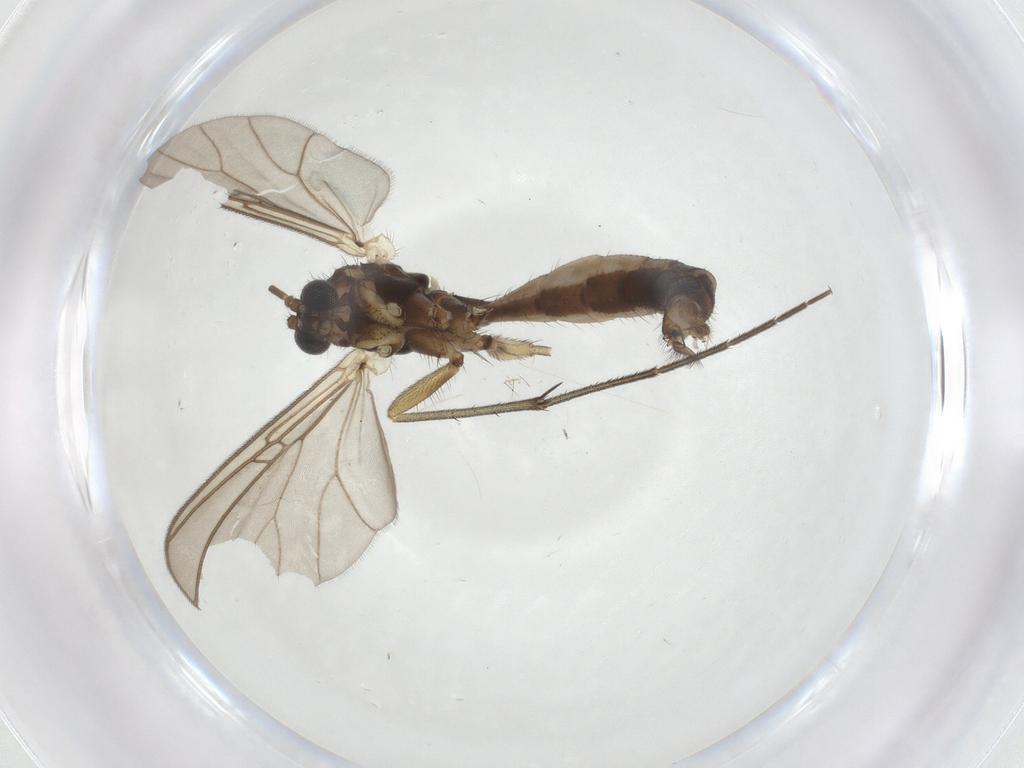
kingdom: Animalia
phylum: Arthropoda
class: Insecta
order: Diptera
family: Mycetophilidae
